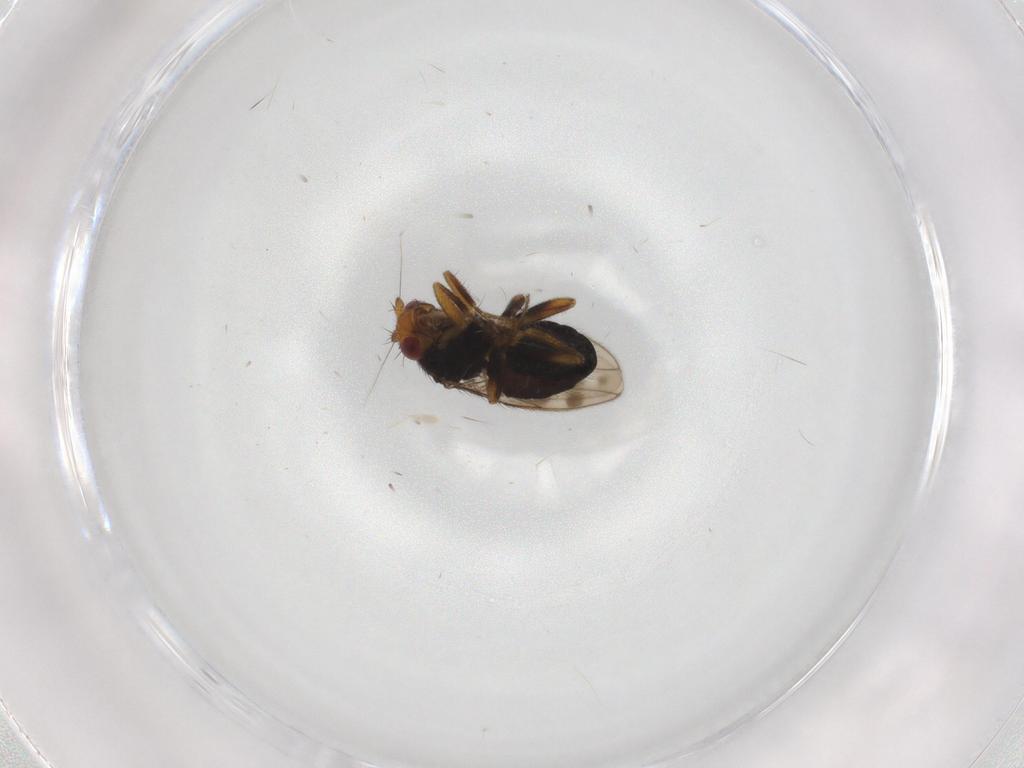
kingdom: Animalia
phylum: Arthropoda
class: Insecta
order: Diptera
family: Sphaeroceridae
